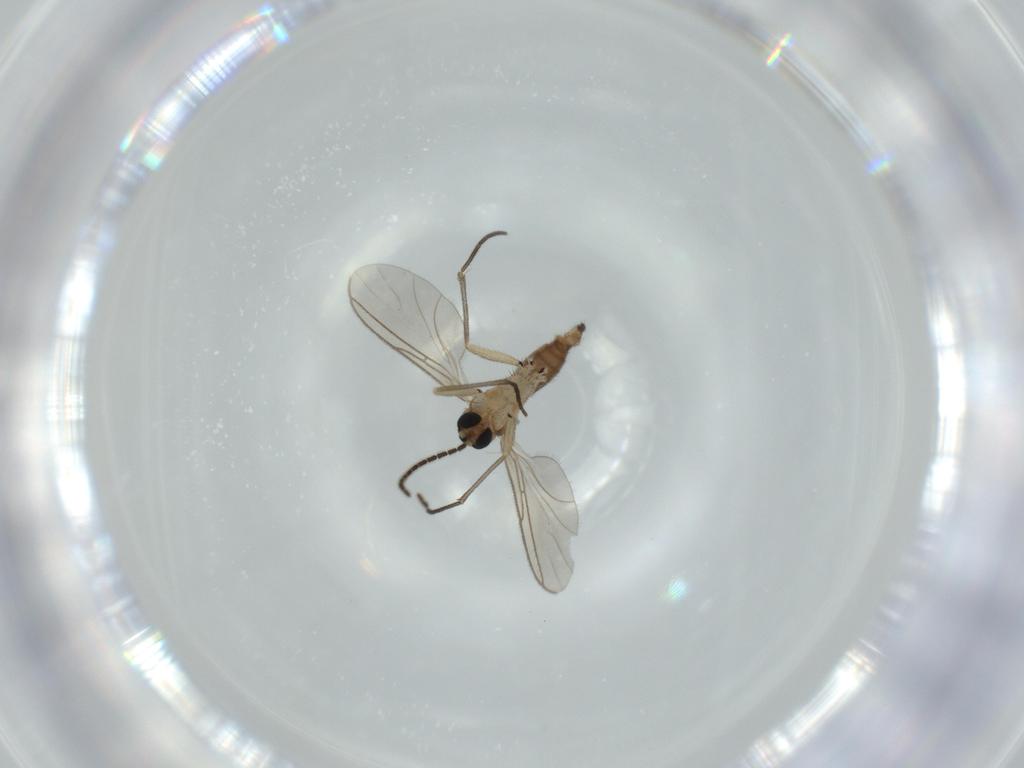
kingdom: Animalia
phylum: Arthropoda
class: Insecta
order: Diptera
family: Sciaridae
